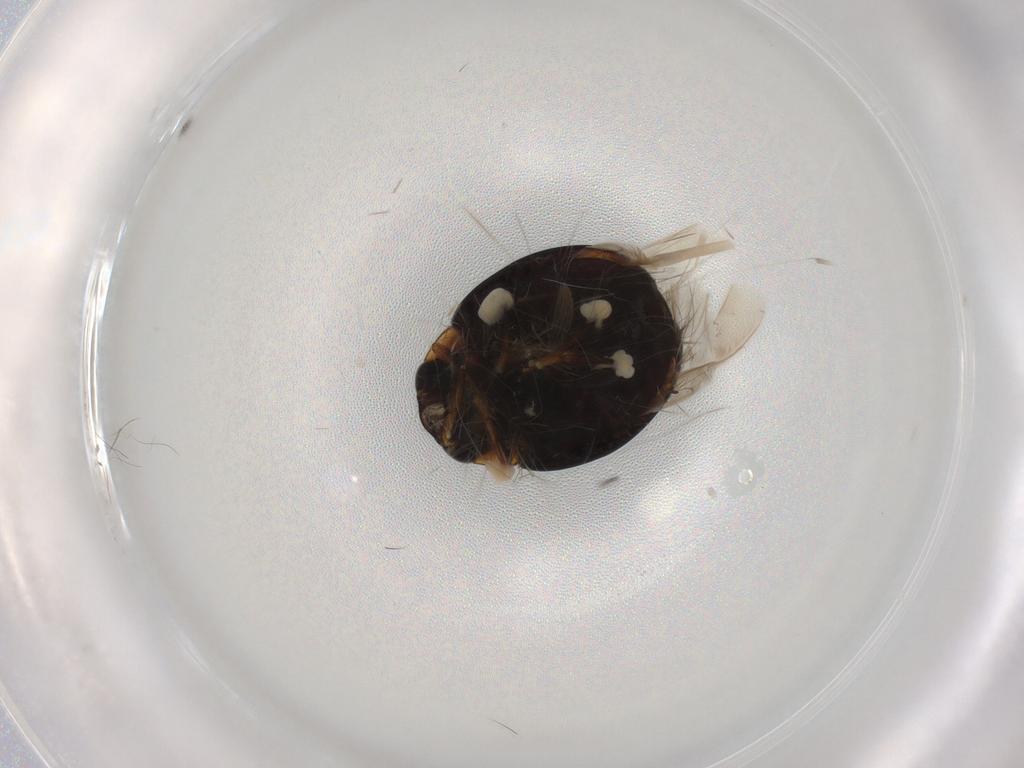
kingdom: Animalia
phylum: Arthropoda
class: Insecta
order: Coleoptera
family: Coccinellidae
